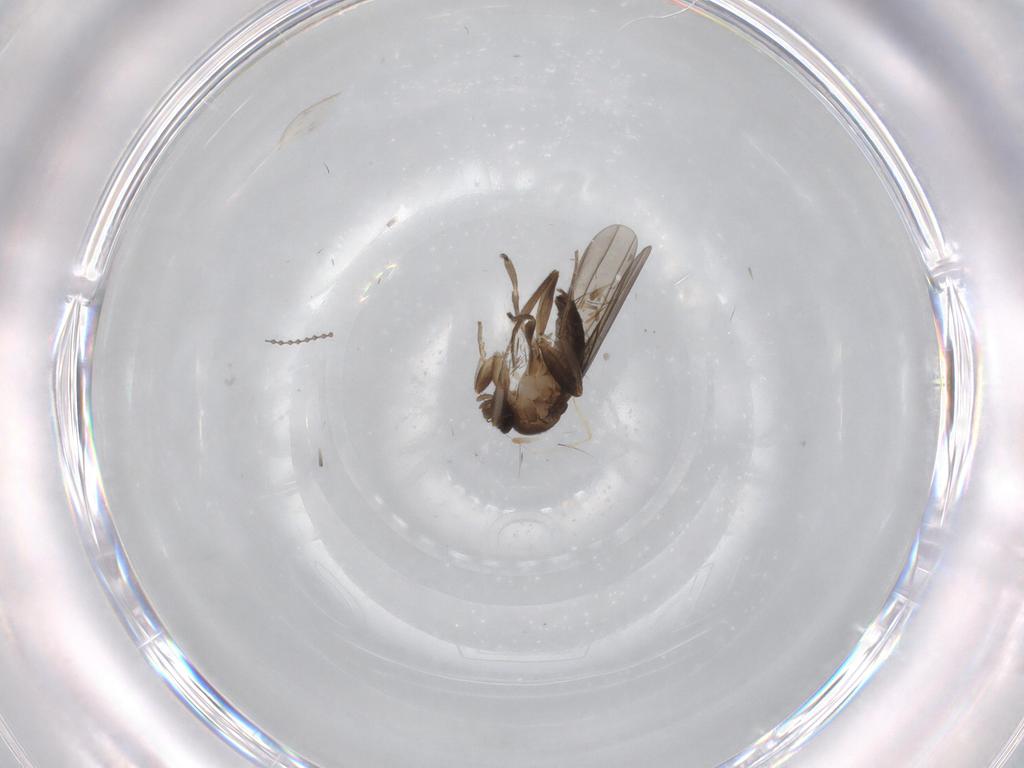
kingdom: Animalia
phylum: Arthropoda
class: Insecta
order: Diptera
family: Cecidomyiidae
